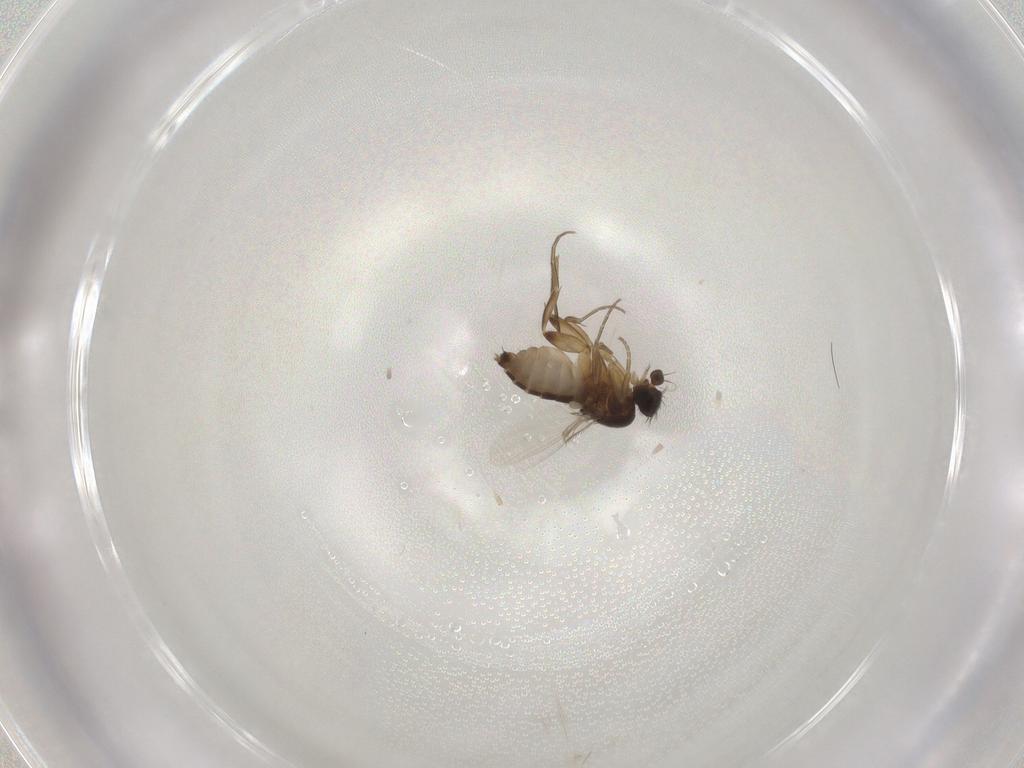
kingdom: Animalia
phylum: Arthropoda
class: Insecta
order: Diptera
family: Phoridae
